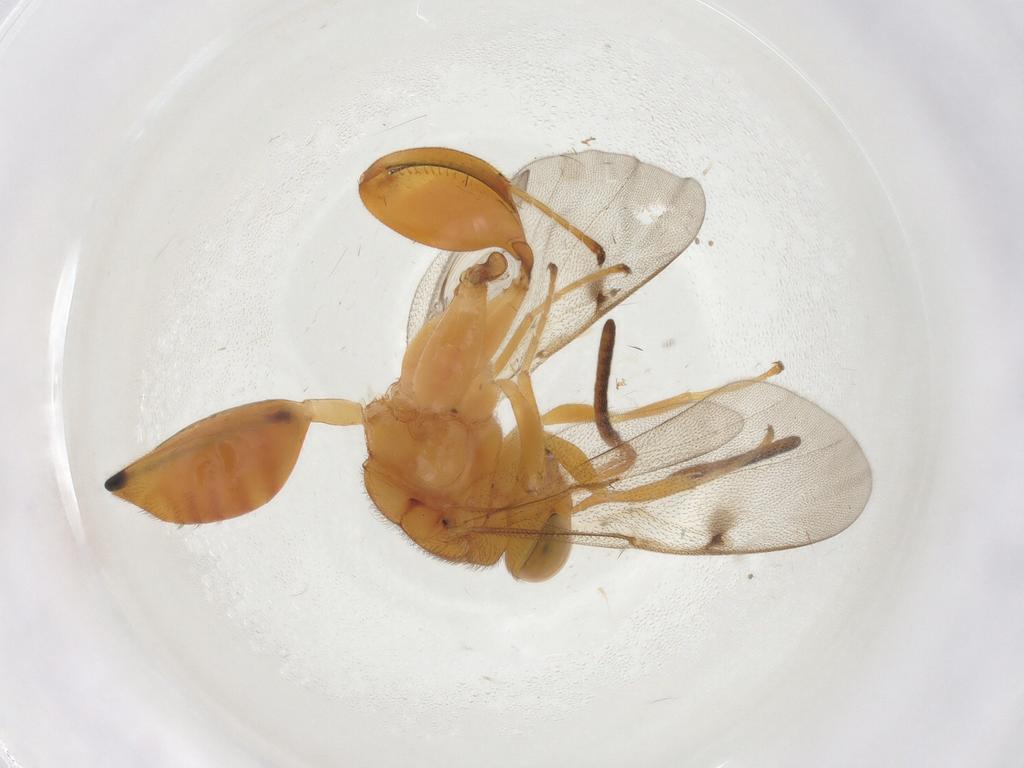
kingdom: Animalia
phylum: Arthropoda
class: Insecta
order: Hymenoptera
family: Chalcididae
